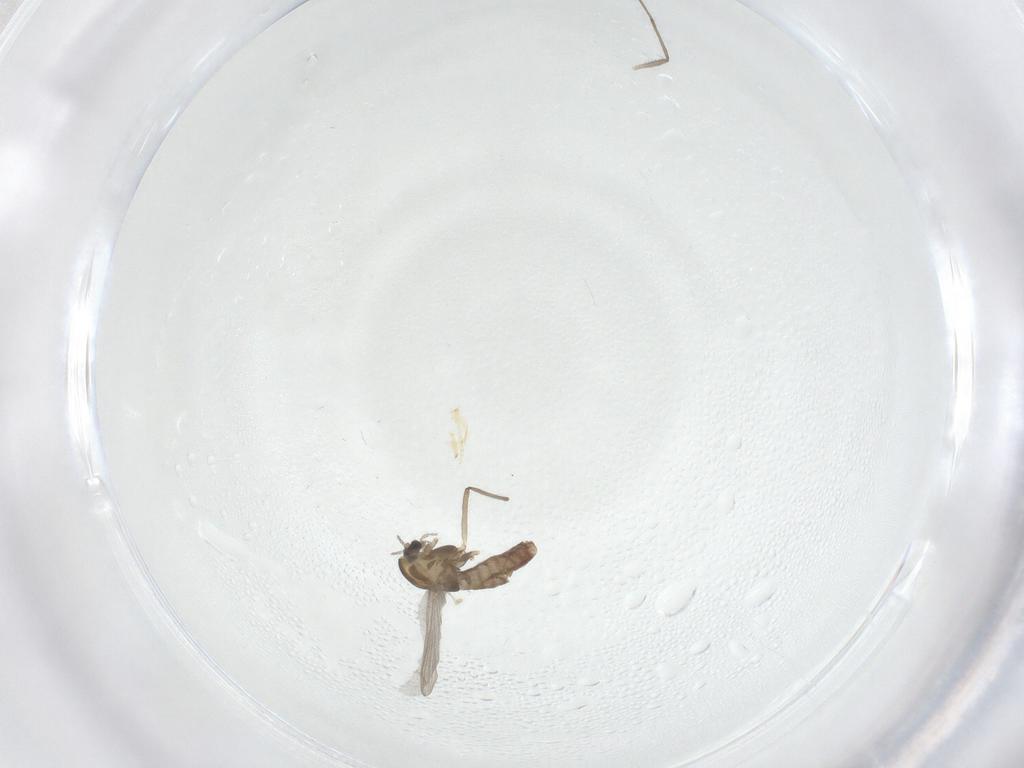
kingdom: Animalia
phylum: Arthropoda
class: Insecta
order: Diptera
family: Chironomidae
